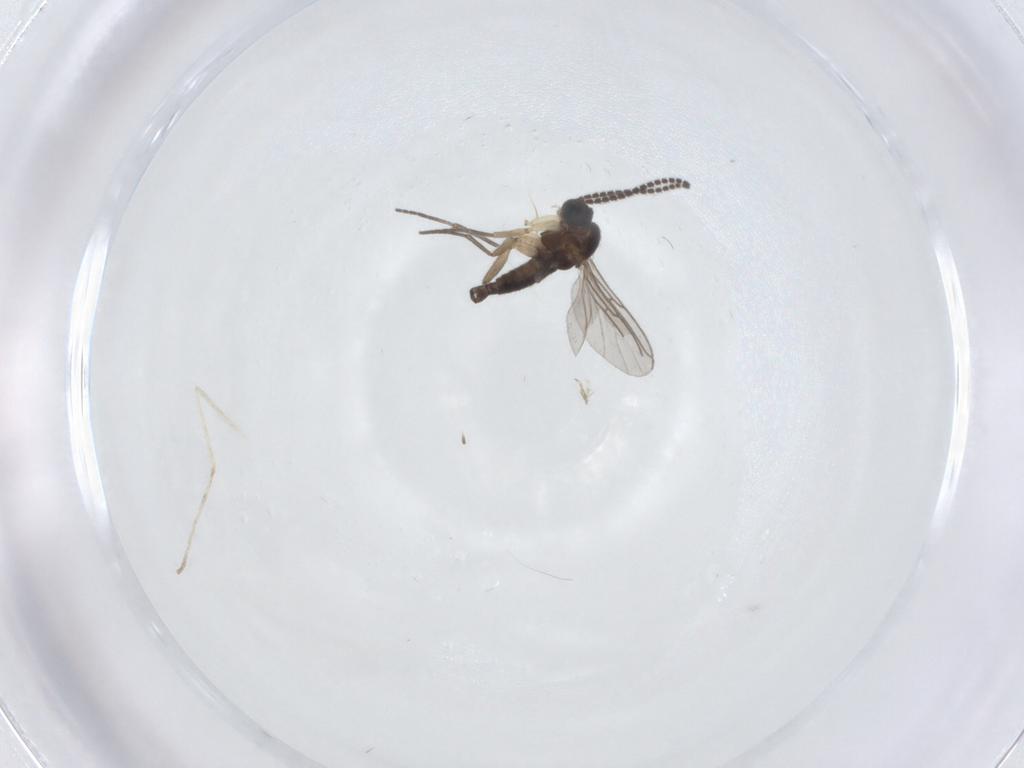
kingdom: Animalia
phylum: Arthropoda
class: Insecta
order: Diptera
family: Sciaridae
